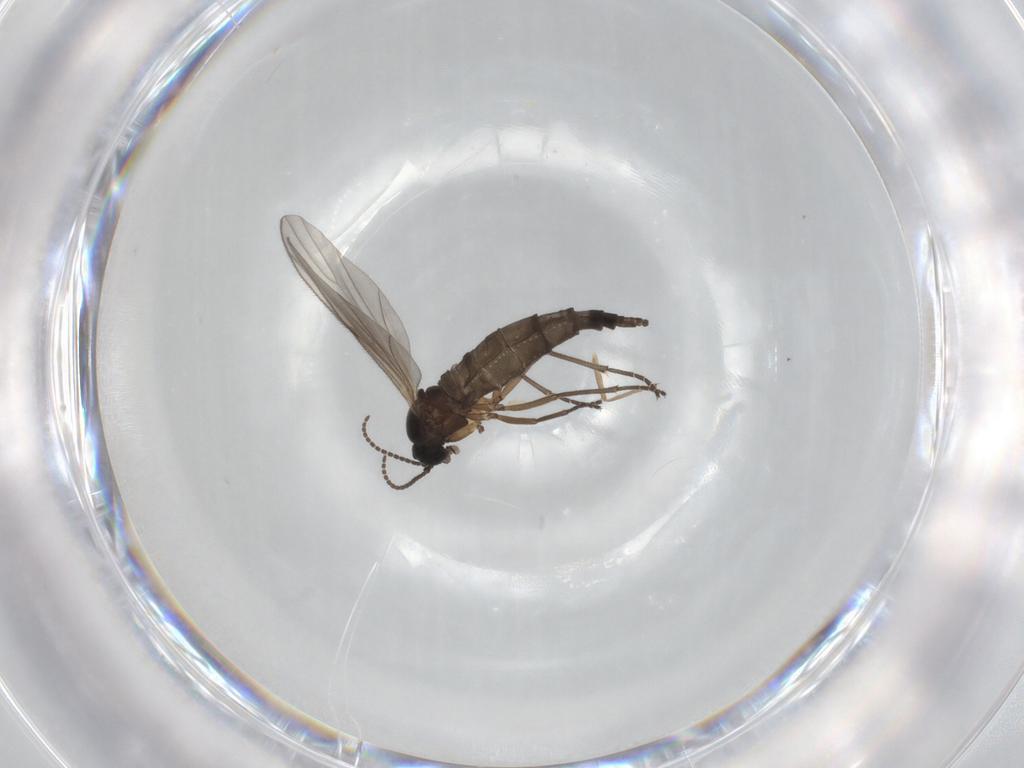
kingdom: Animalia
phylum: Arthropoda
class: Insecta
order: Diptera
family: Sciaridae
